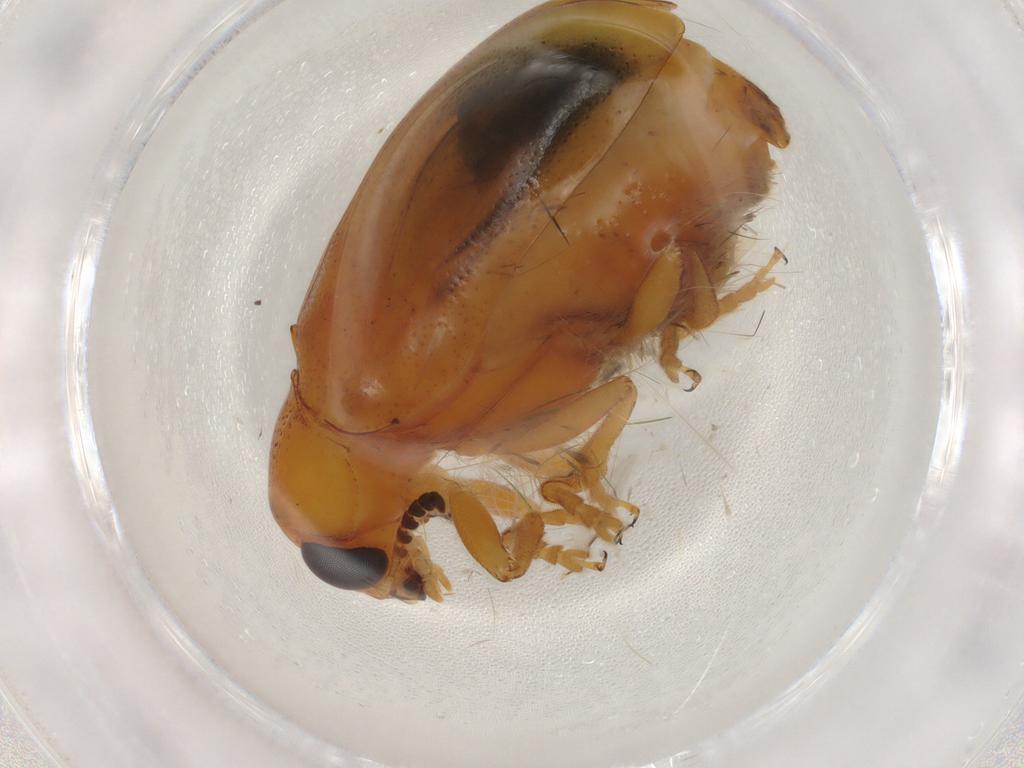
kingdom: Animalia
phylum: Arthropoda
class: Insecta
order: Coleoptera
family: Chrysomelidae
